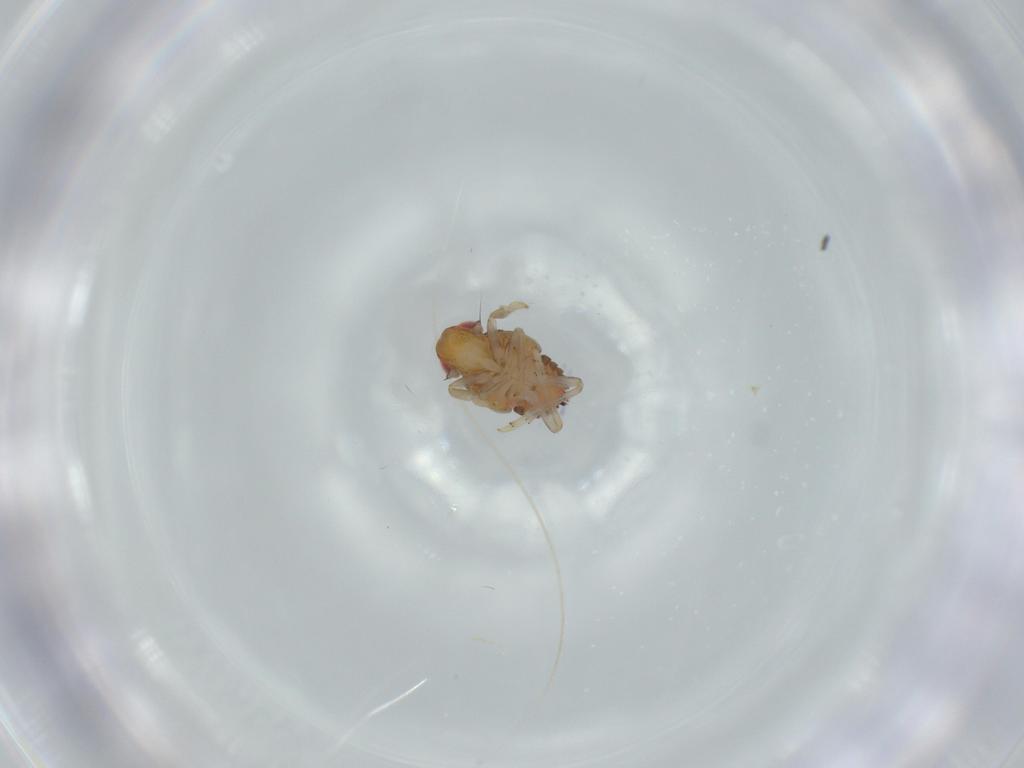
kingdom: Animalia
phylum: Arthropoda
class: Insecta
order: Hemiptera
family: Issidae
